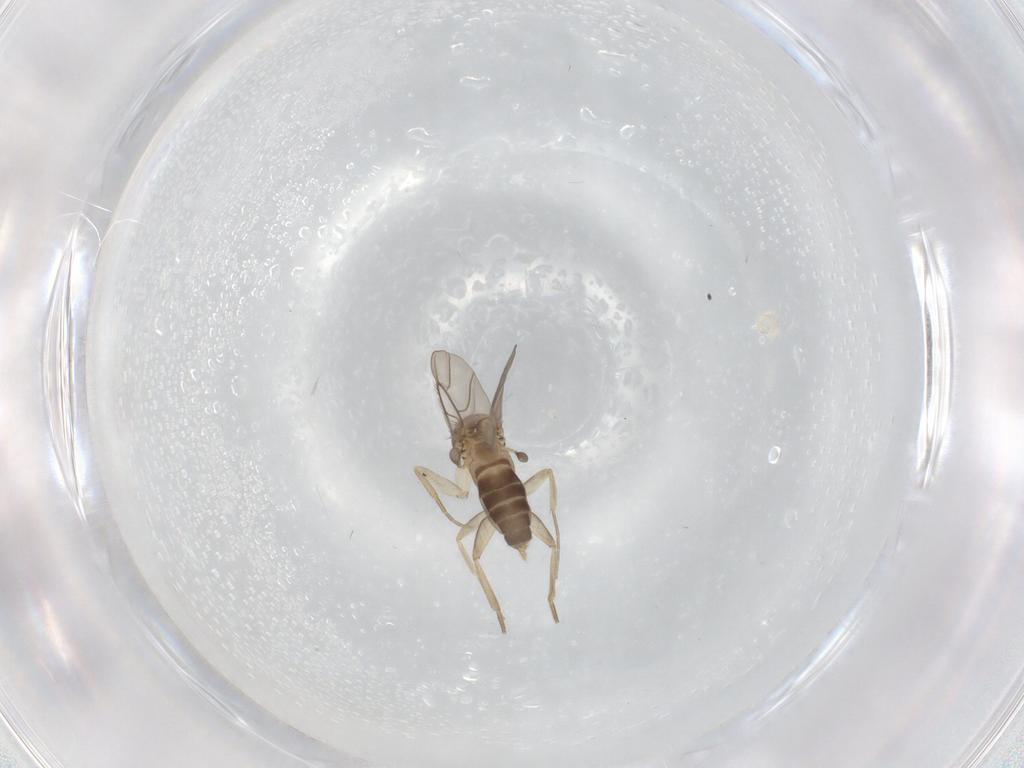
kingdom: Animalia
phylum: Arthropoda
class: Insecta
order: Diptera
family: Phoridae
